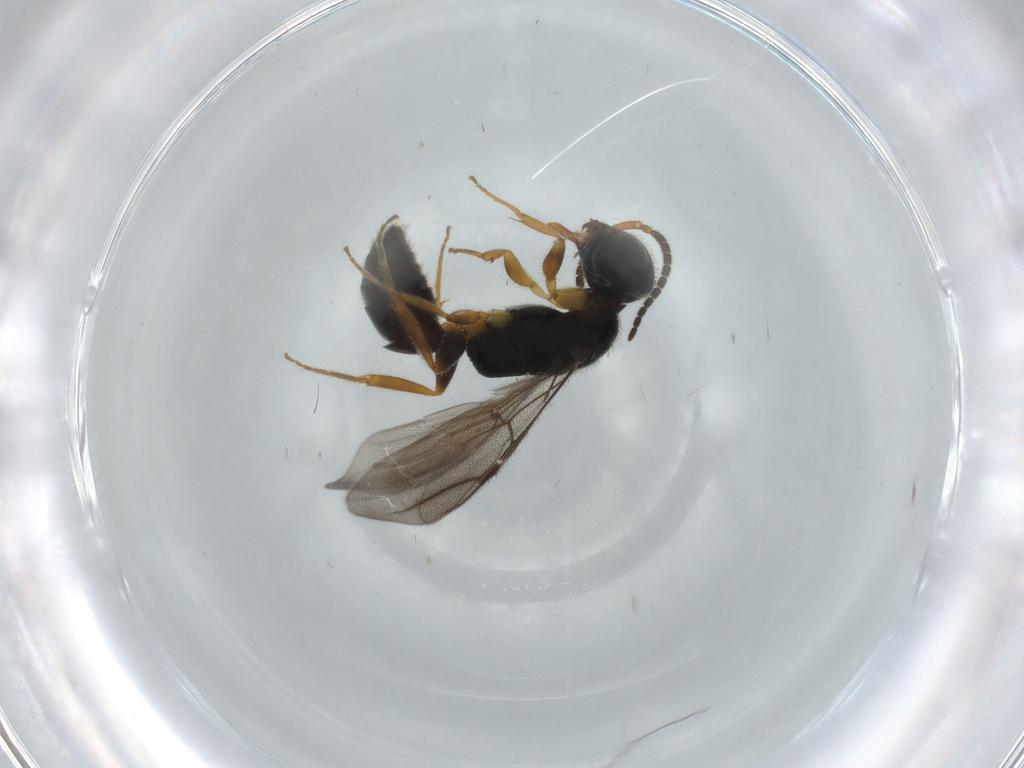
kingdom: Animalia
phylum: Arthropoda
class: Insecta
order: Hymenoptera
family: Bethylidae
